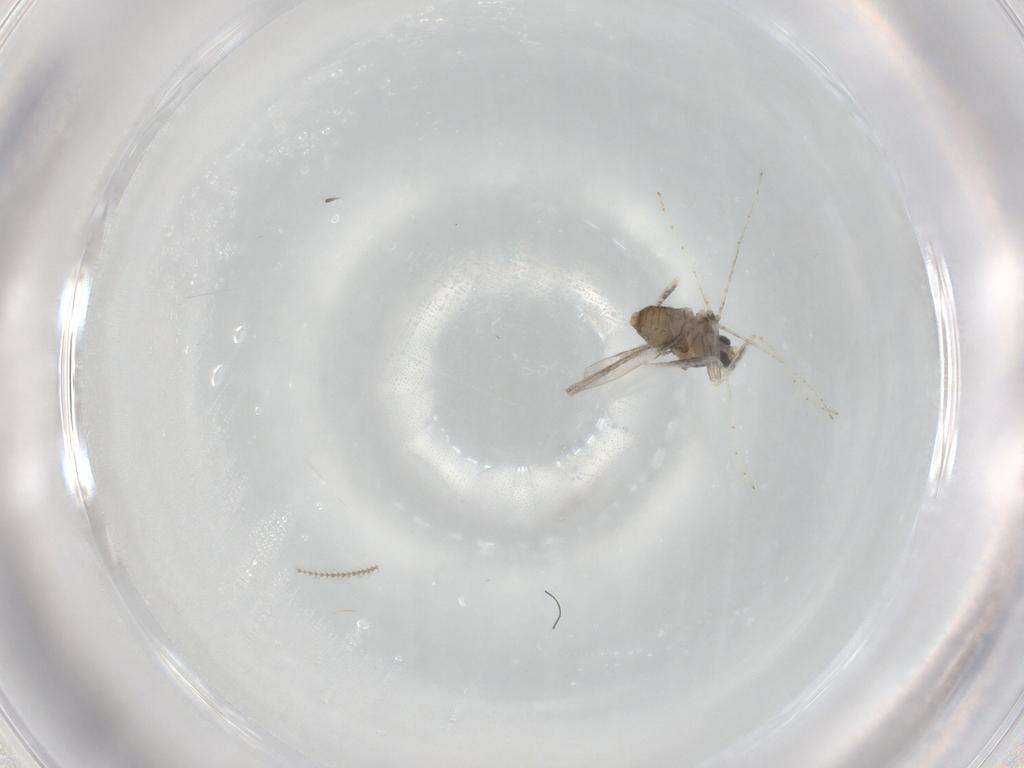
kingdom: Animalia
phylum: Arthropoda
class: Insecta
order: Diptera
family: Cecidomyiidae
